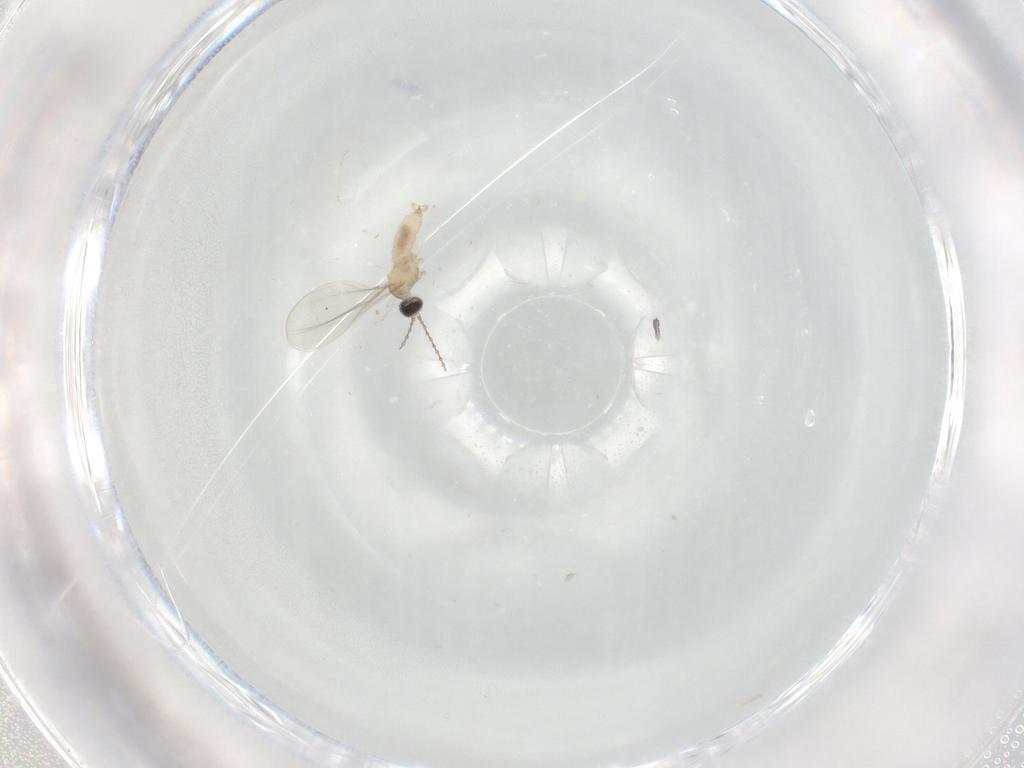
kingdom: Animalia
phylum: Arthropoda
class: Insecta
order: Diptera
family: Cecidomyiidae
